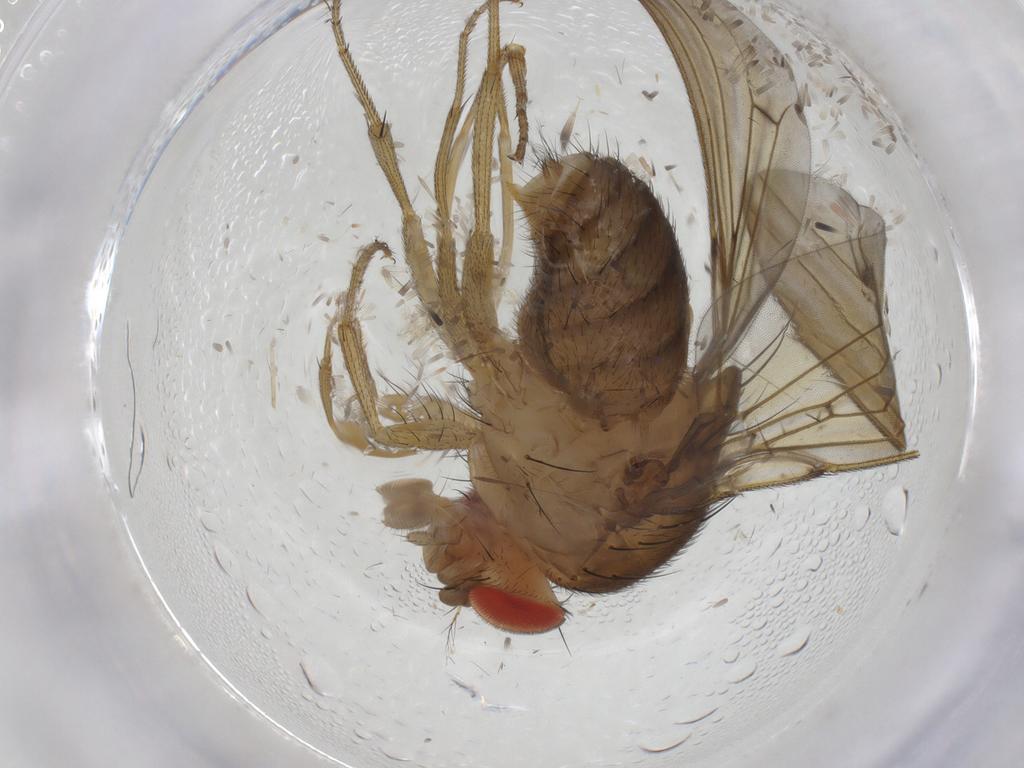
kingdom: Animalia
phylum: Arthropoda
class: Insecta
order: Diptera
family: Drosophilidae
